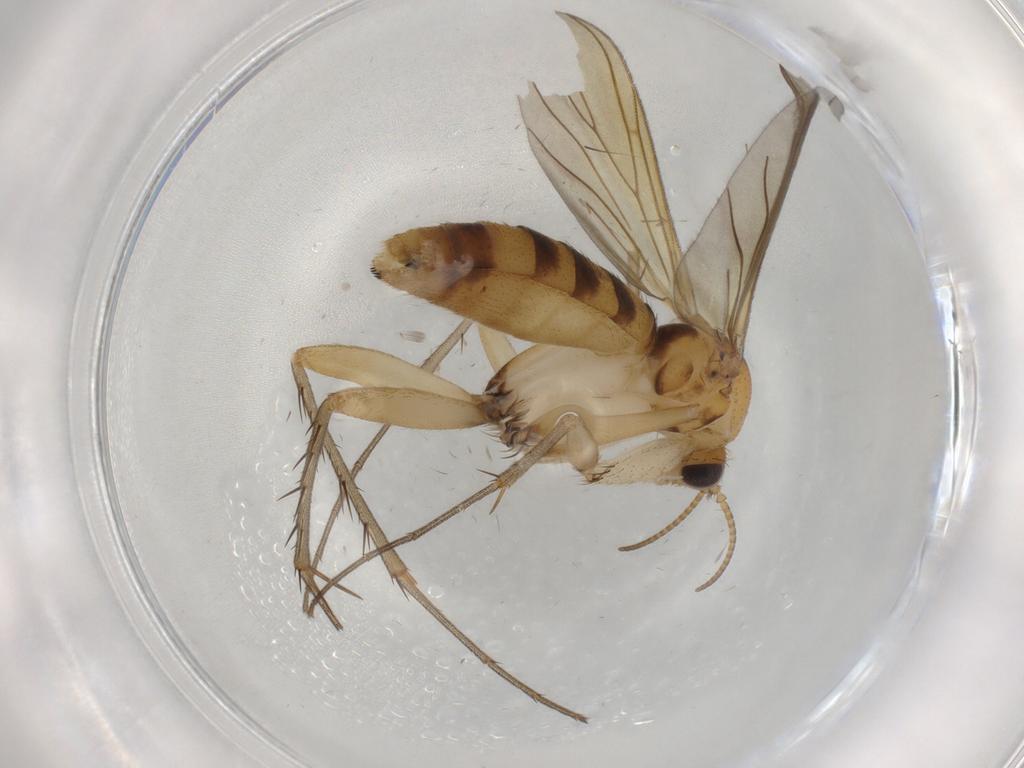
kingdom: Animalia
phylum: Arthropoda
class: Insecta
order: Diptera
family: Mycetophilidae
